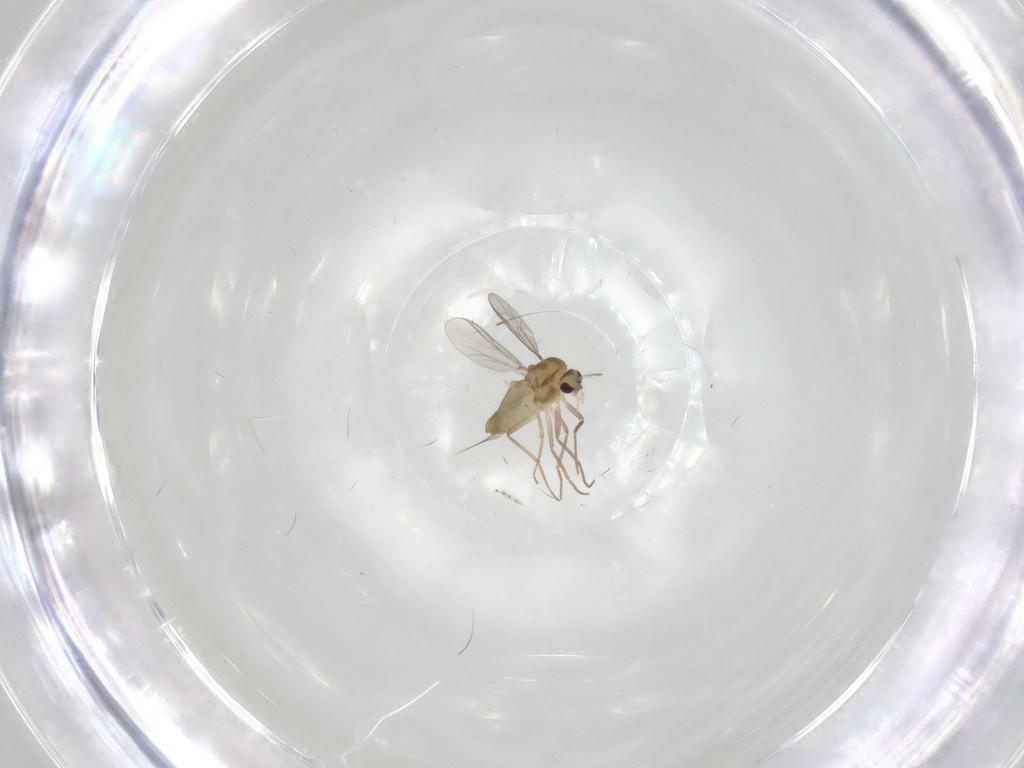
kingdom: Animalia
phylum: Arthropoda
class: Insecta
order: Diptera
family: Chironomidae
